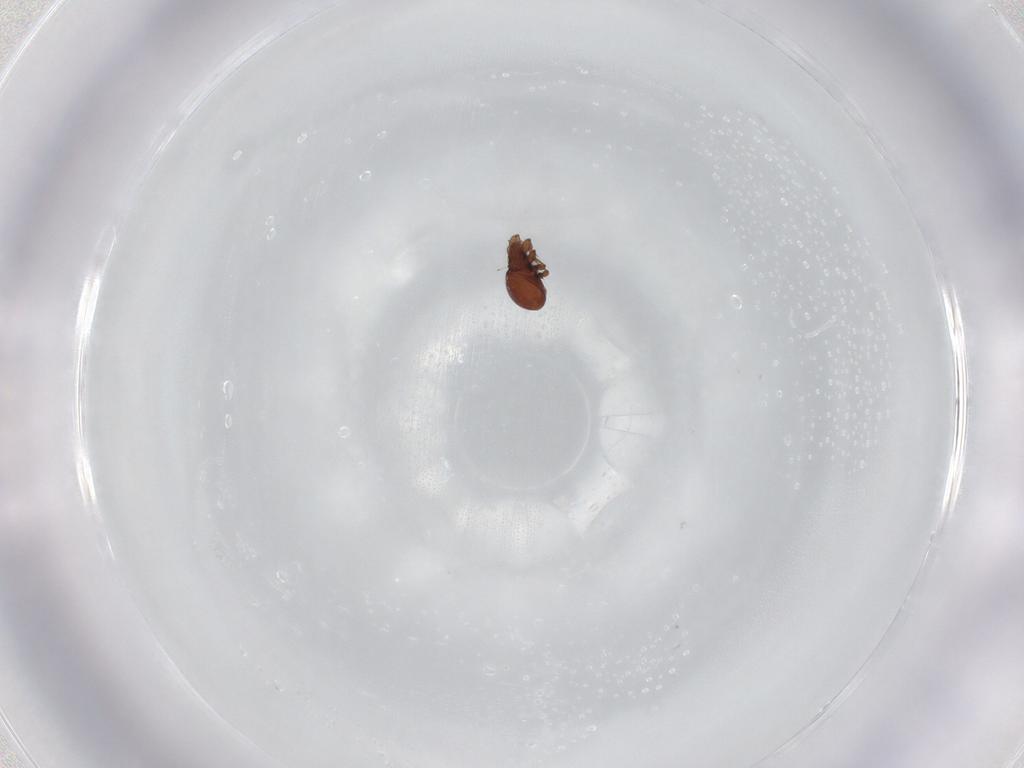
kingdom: Animalia
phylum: Arthropoda
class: Arachnida
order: Sarcoptiformes
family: Eremaeidae
